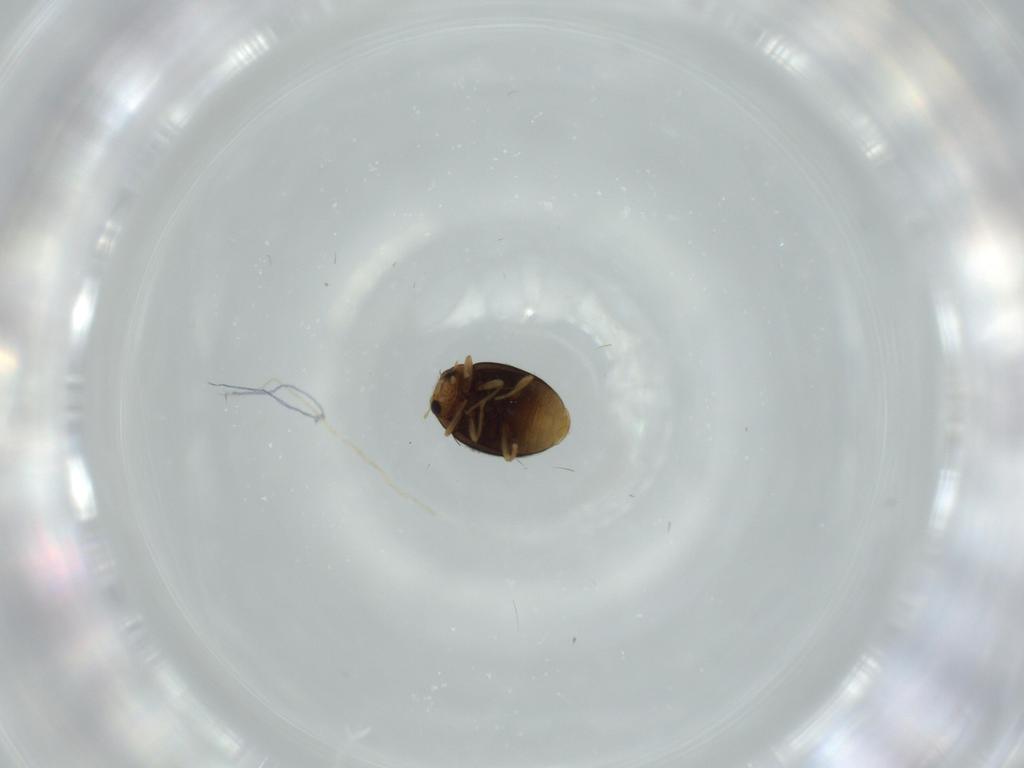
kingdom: Animalia
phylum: Arthropoda
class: Insecta
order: Coleoptera
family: Coccinellidae
